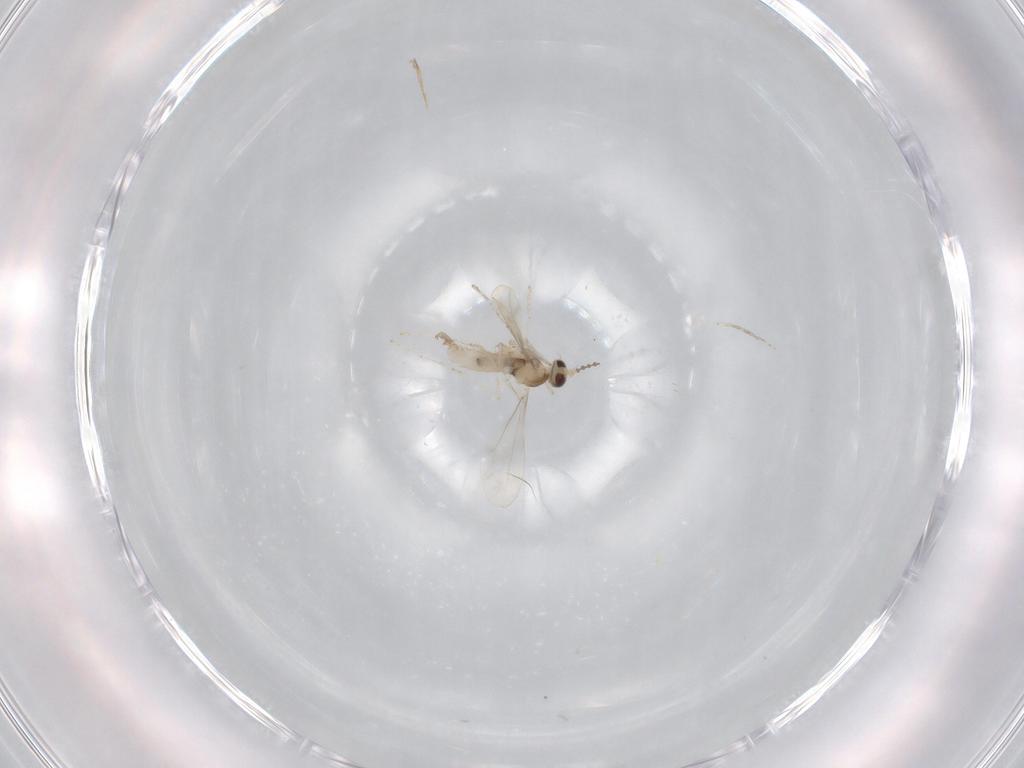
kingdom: Animalia
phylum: Arthropoda
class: Insecta
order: Diptera
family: Cecidomyiidae
